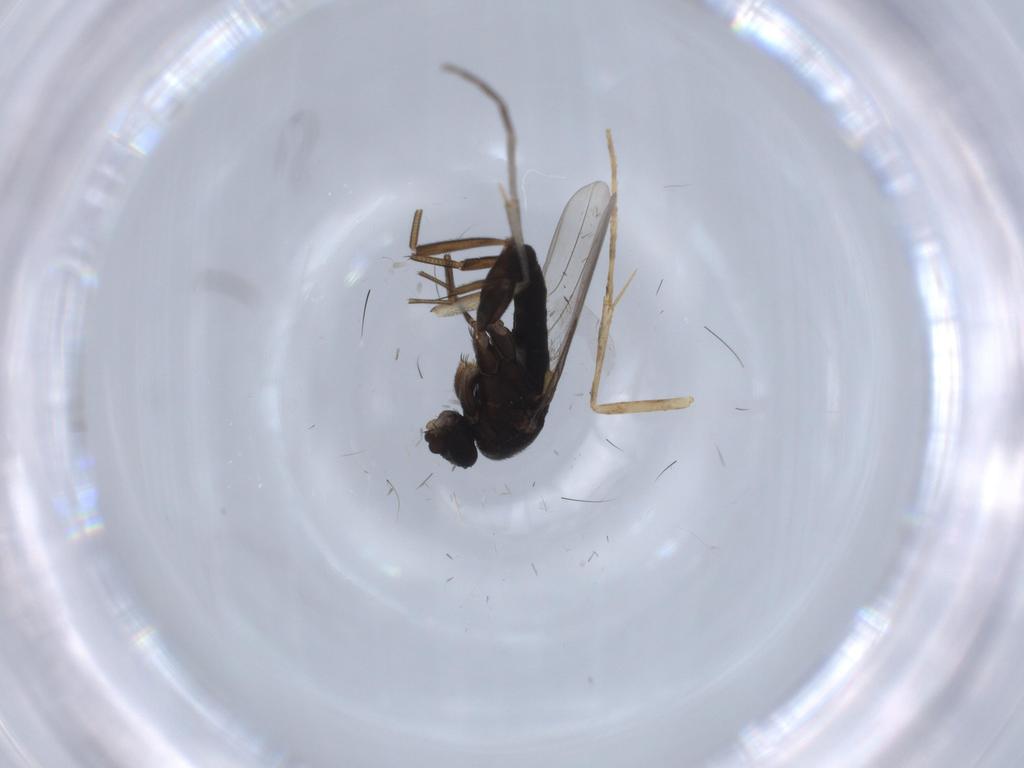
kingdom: Animalia
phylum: Arthropoda
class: Insecta
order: Diptera
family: Phoridae
